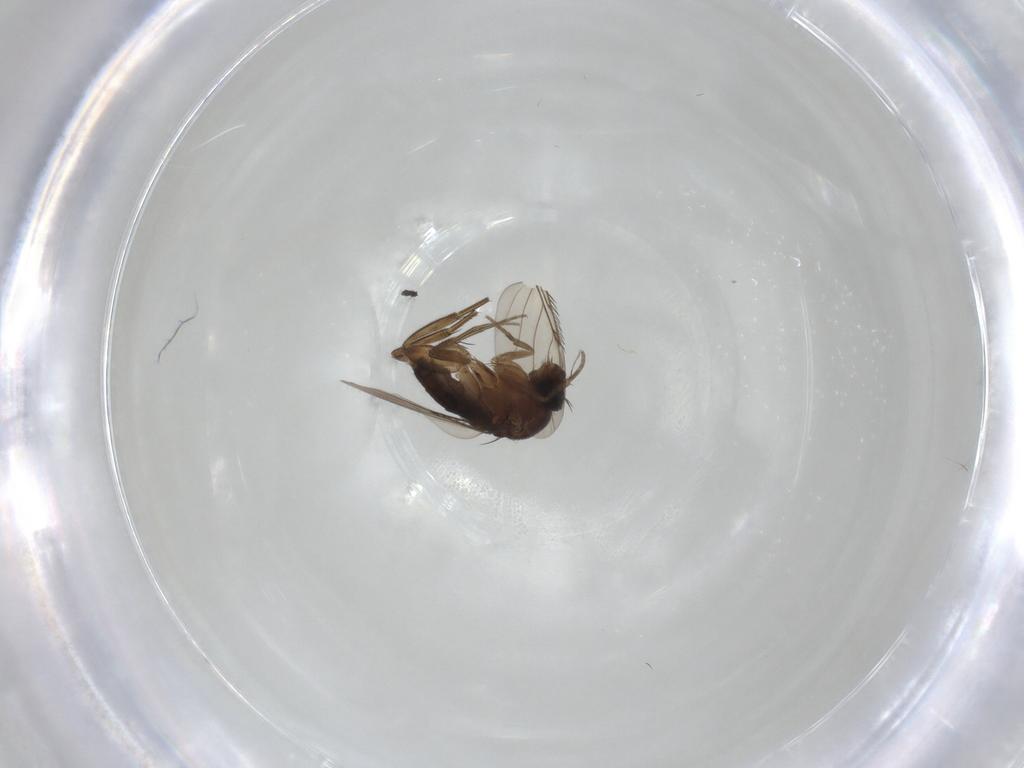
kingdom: Animalia
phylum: Arthropoda
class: Insecta
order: Diptera
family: Phoridae
